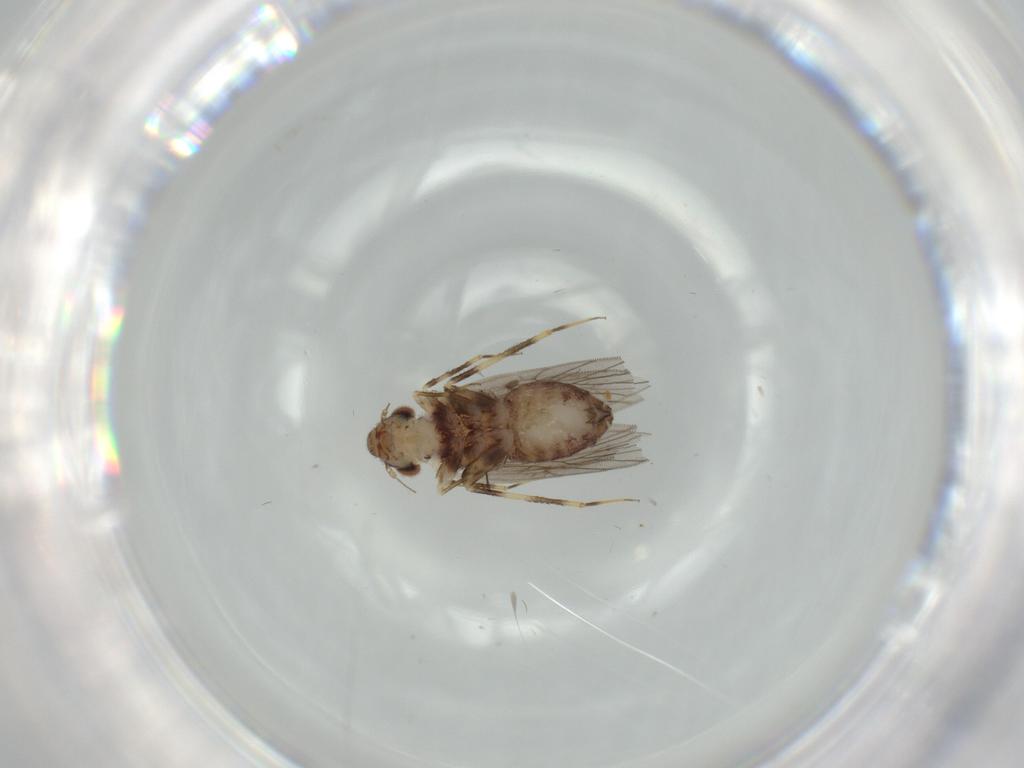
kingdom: Animalia
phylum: Arthropoda
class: Insecta
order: Psocodea
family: Lepidopsocidae
